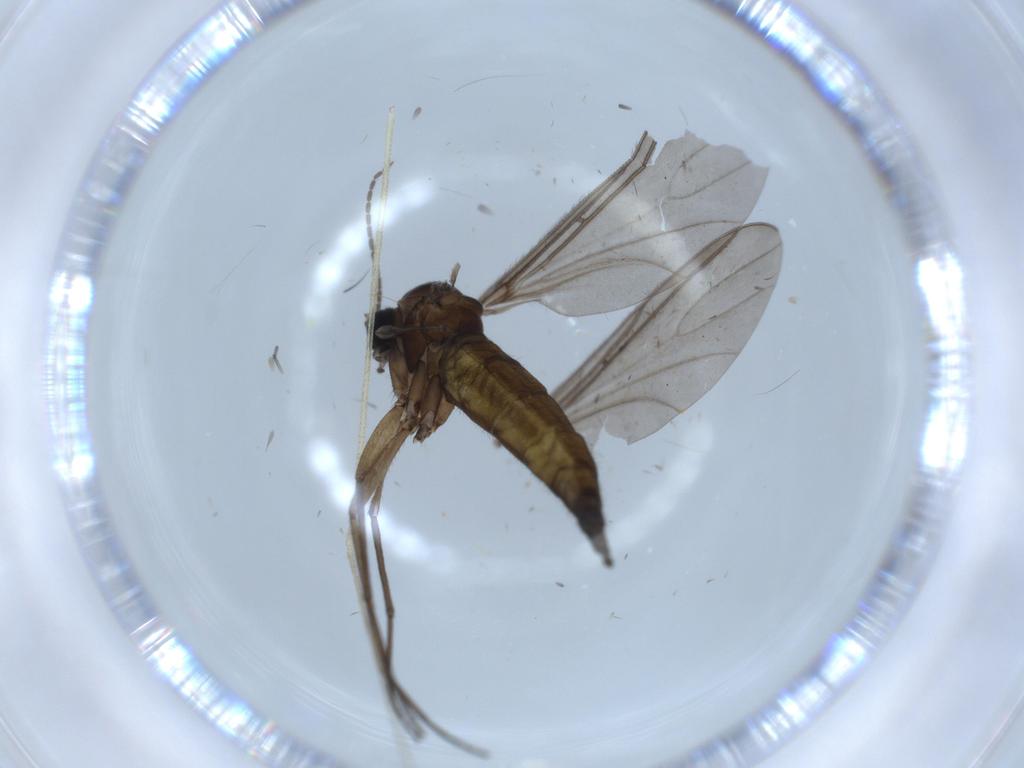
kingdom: Animalia
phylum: Arthropoda
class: Insecta
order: Diptera
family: Sciaridae
